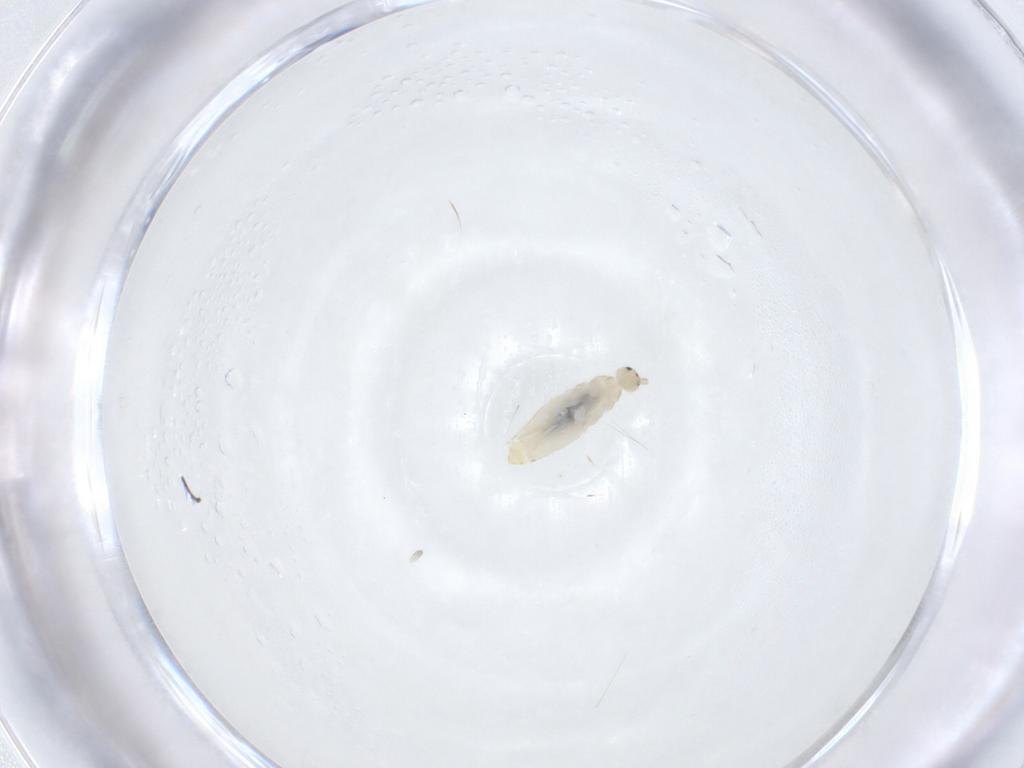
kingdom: Animalia
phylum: Arthropoda
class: Collembola
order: Entomobryomorpha
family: Entomobryidae
